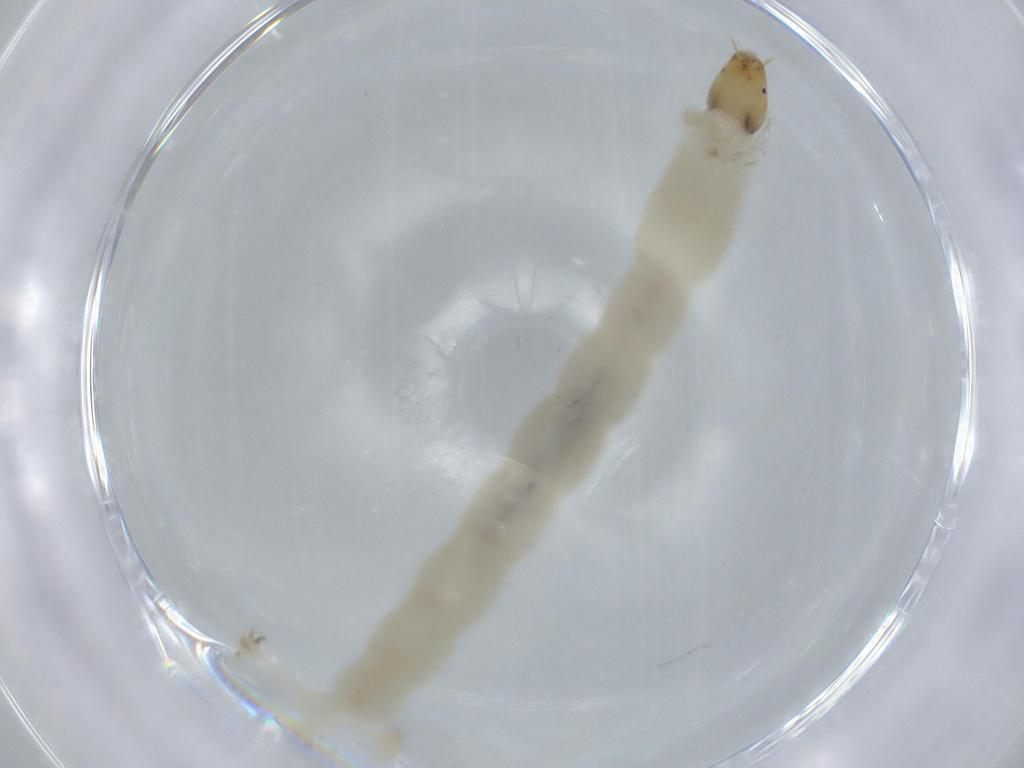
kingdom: Animalia
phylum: Arthropoda
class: Insecta
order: Diptera
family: Chironomidae
